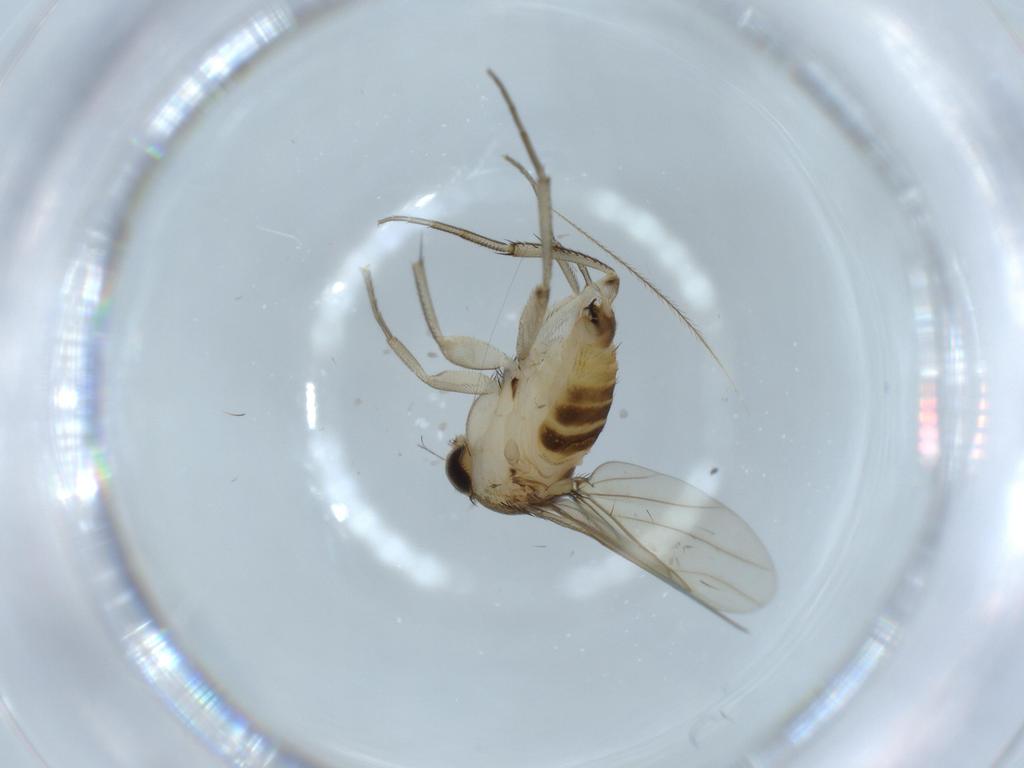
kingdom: Animalia
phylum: Arthropoda
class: Insecta
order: Diptera
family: Phoridae
